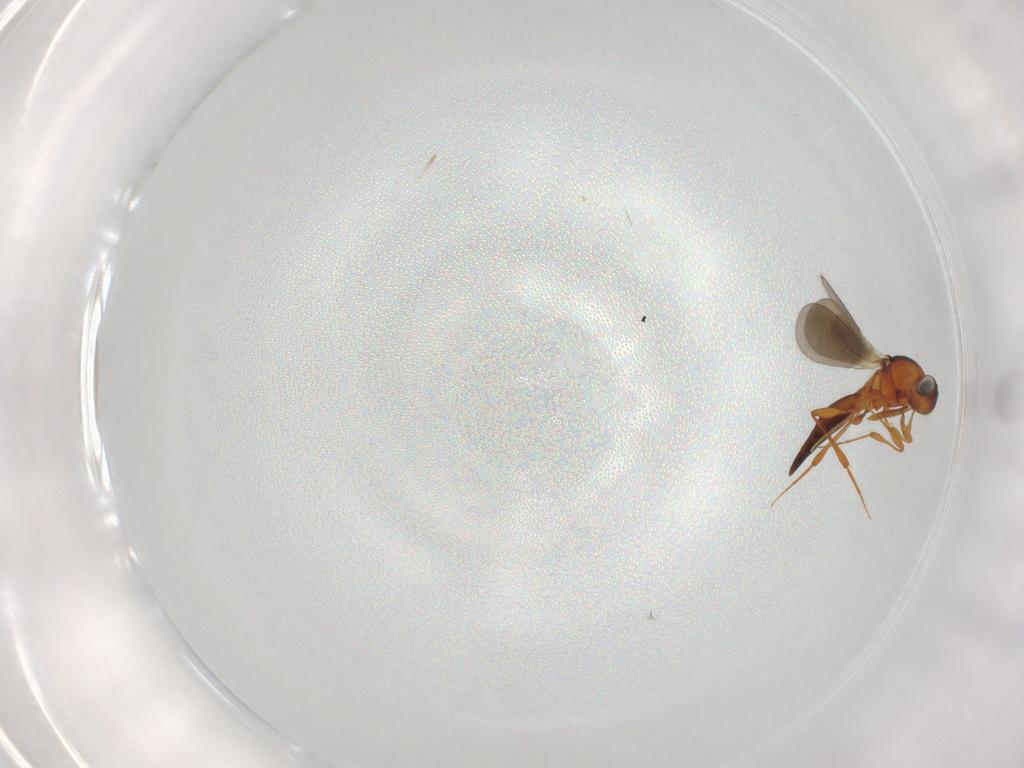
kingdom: Animalia
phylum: Arthropoda
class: Insecta
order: Hymenoptera
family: Platygastridae
